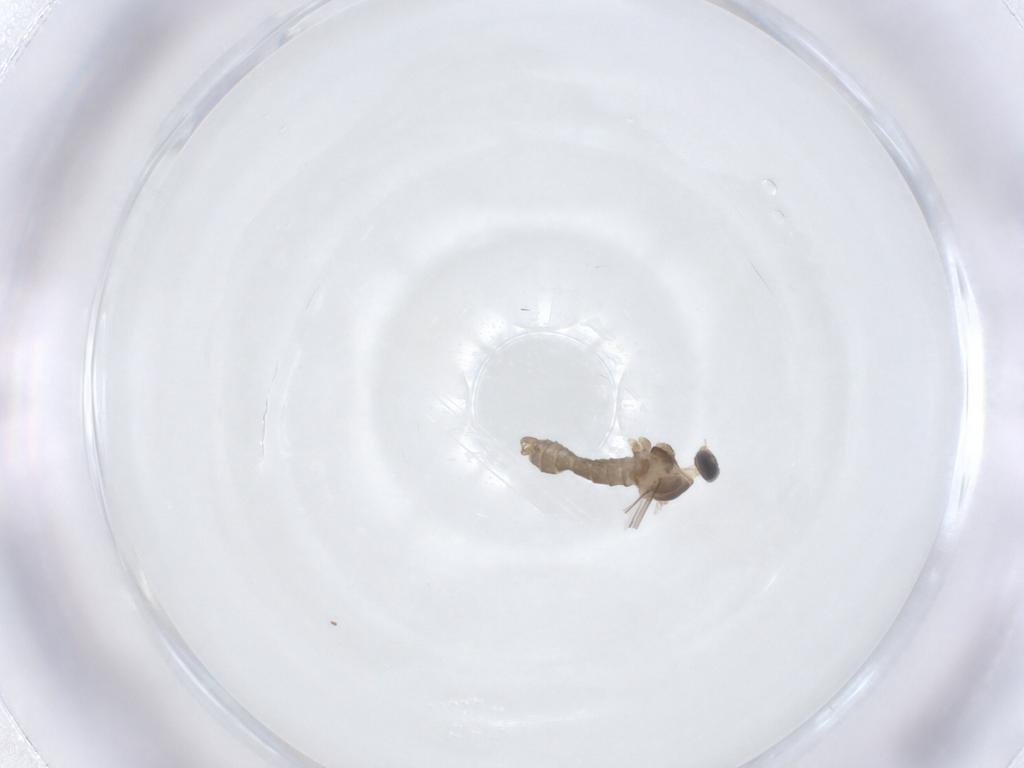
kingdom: Animalia
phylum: Arthropoda
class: Insecta
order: Diptera
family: Cecidomyiidae
